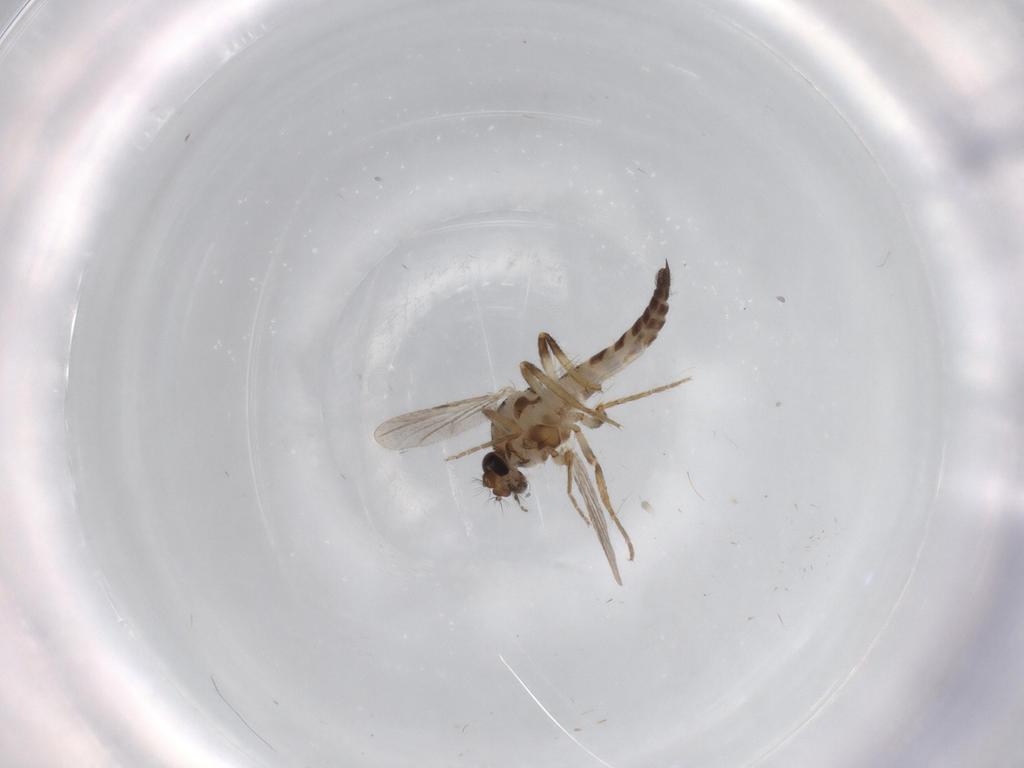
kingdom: Animalia
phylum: Arthropoda
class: Insecta
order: Diptera
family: Ceratopogonidae
